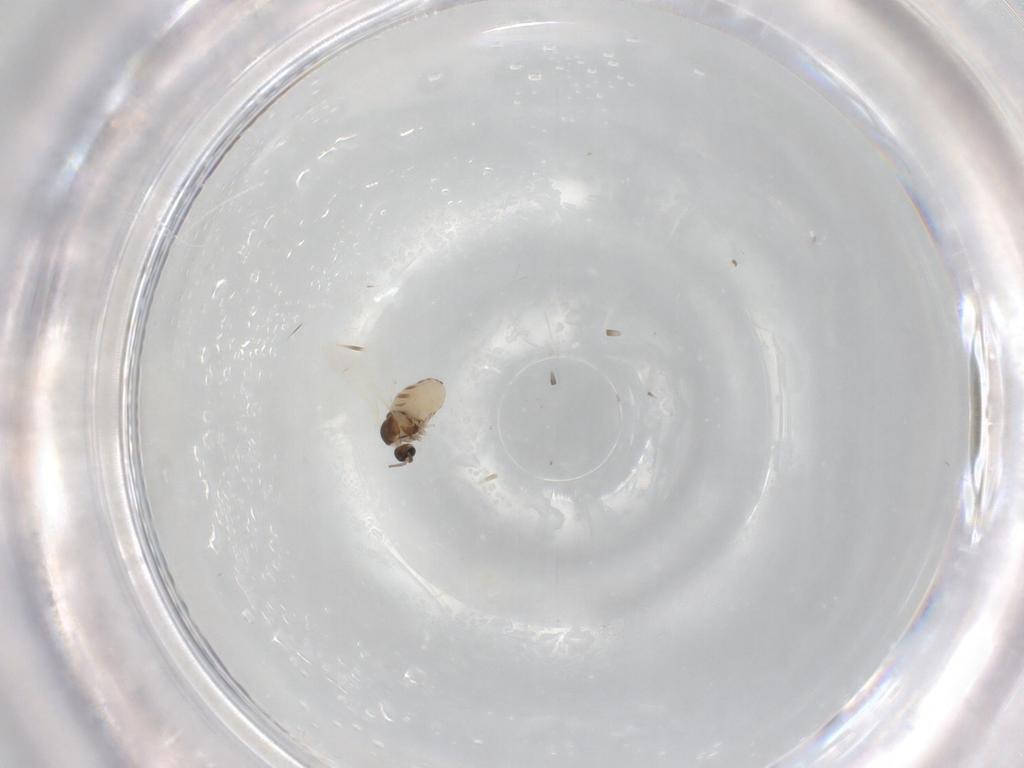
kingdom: Animalia
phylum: Arthropoda
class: Insecta
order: Diptera
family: Cecidomyiidae
